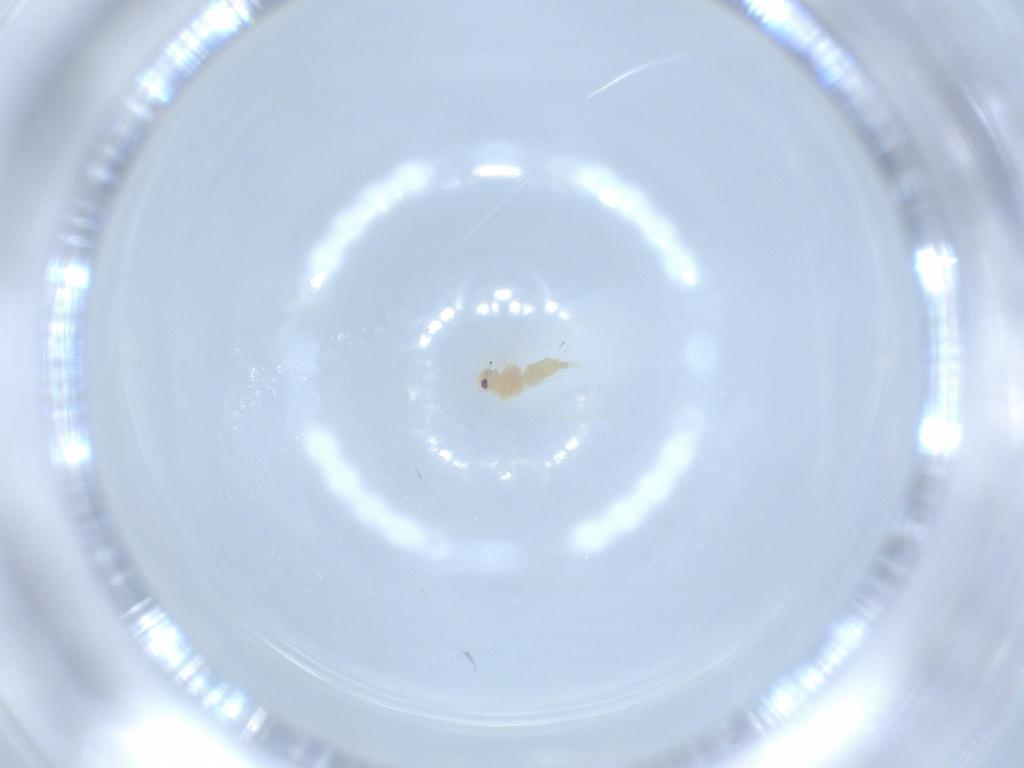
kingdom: Animalia
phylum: Arthropoda
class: Insecta
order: Hemiptera
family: Aleyrodidae
